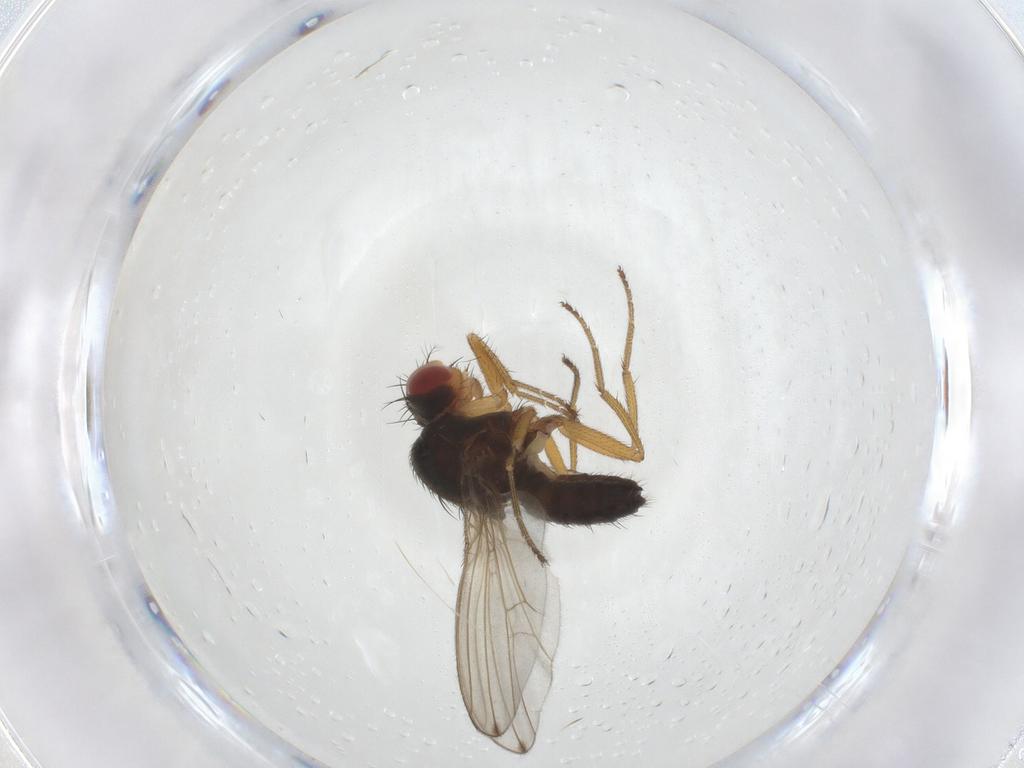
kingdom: Animalia
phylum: Arthropoda
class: Insecta
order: Diptera
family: Drosophilidae
